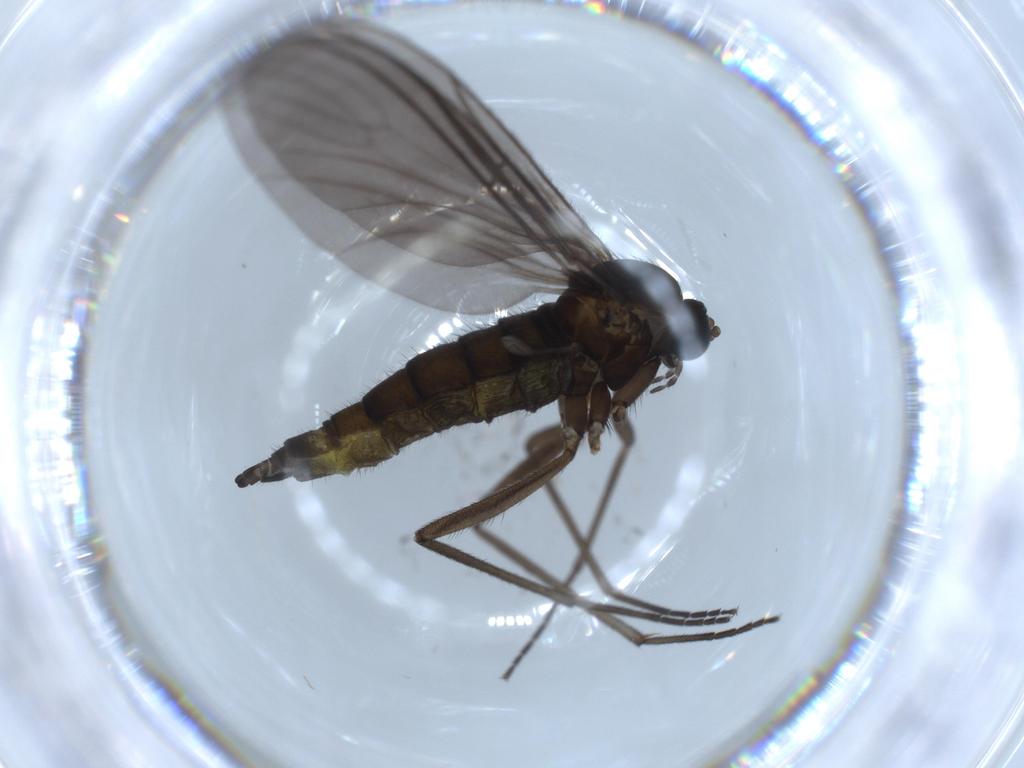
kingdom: Animalia
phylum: Arthropoda
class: Insecta
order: Diptera
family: Sciaridae
